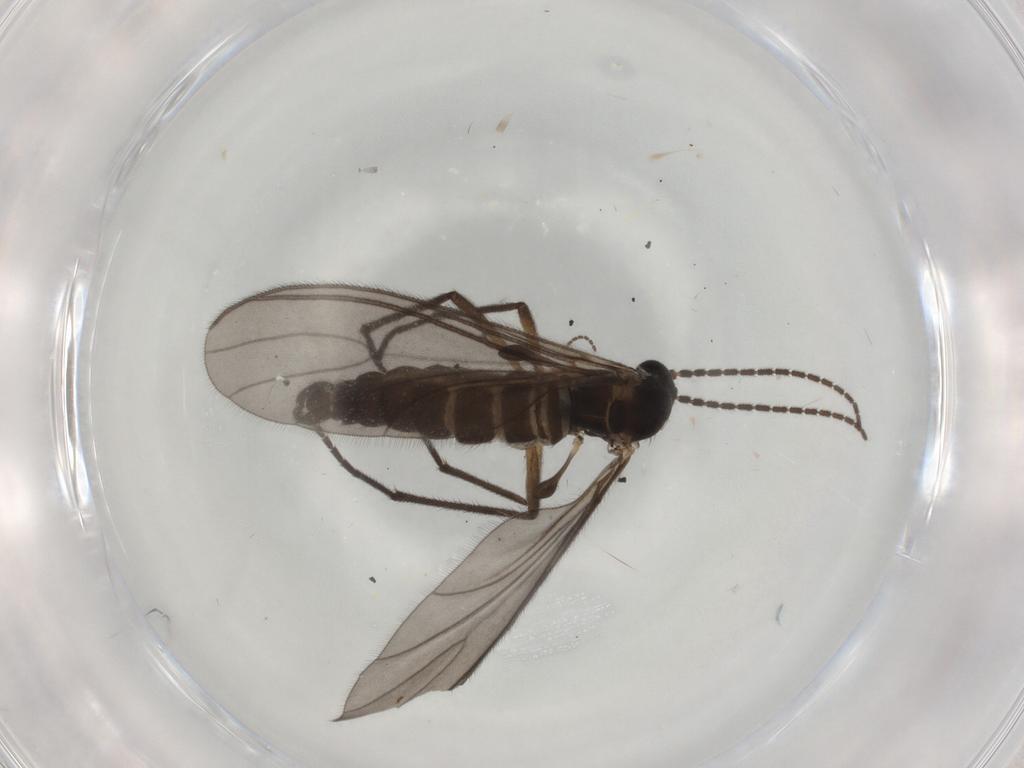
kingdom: Animalia
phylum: Arthropoda
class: Insecta
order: Diptera
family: Sciaridae
